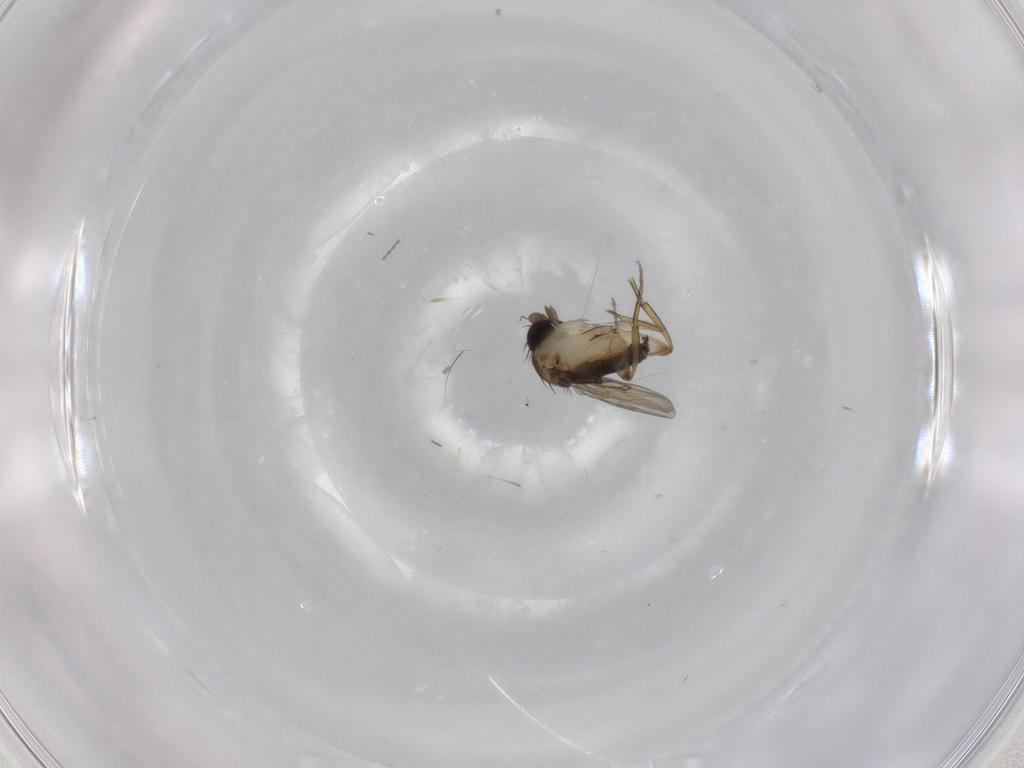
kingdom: Animalia
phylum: Arthropoda
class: Insecta
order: Diptera
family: Phoridae
